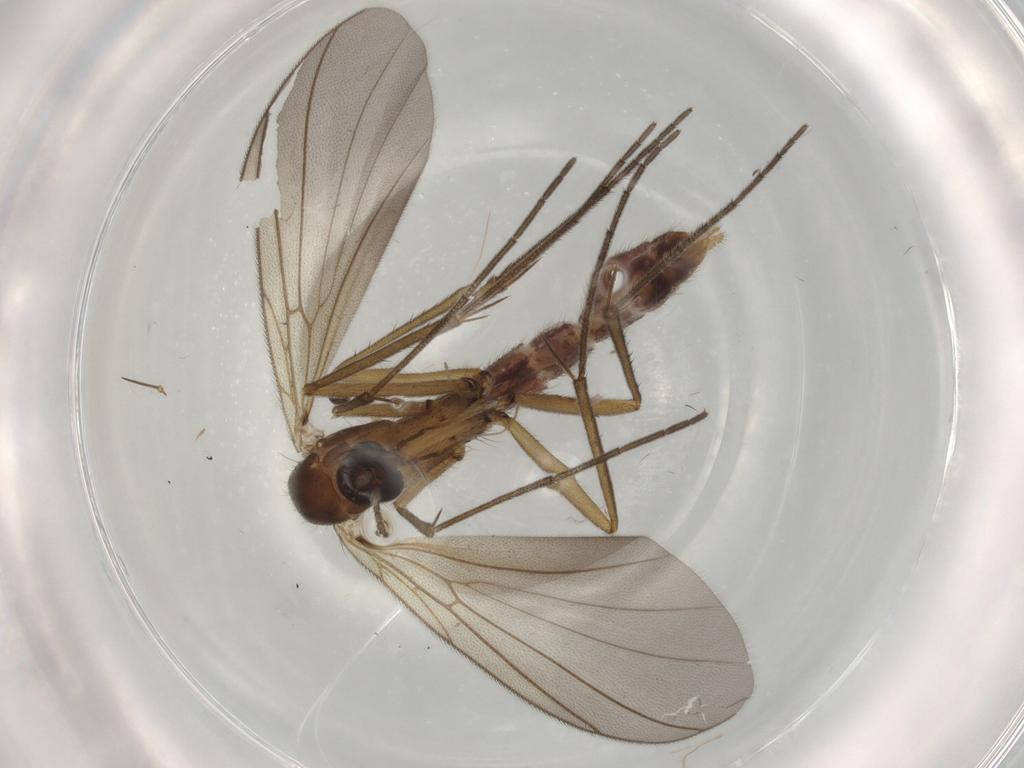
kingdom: Animalia
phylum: Arthropoda
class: Insecta
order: Diptera
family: Mycetophilidae
